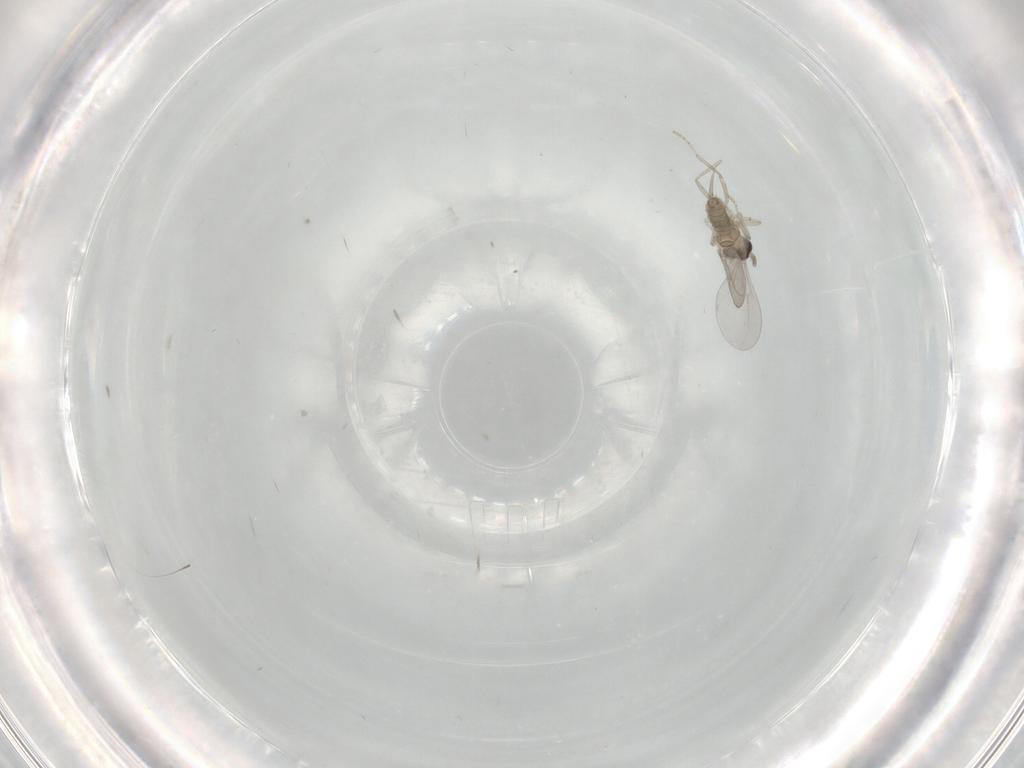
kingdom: Animalia
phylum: Arthropoda
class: Insecta
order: Diptera
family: Cecidomyiidae
